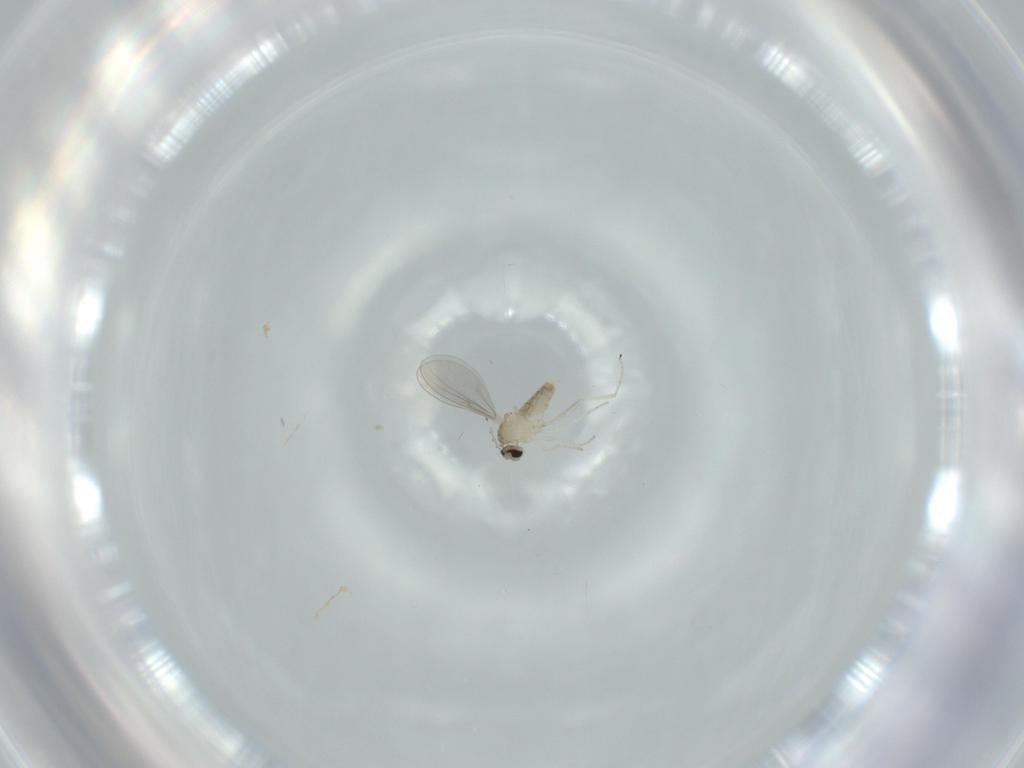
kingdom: Animalia
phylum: Arthropoda
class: Insecta
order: Diptera
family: Cecidomyiidae
